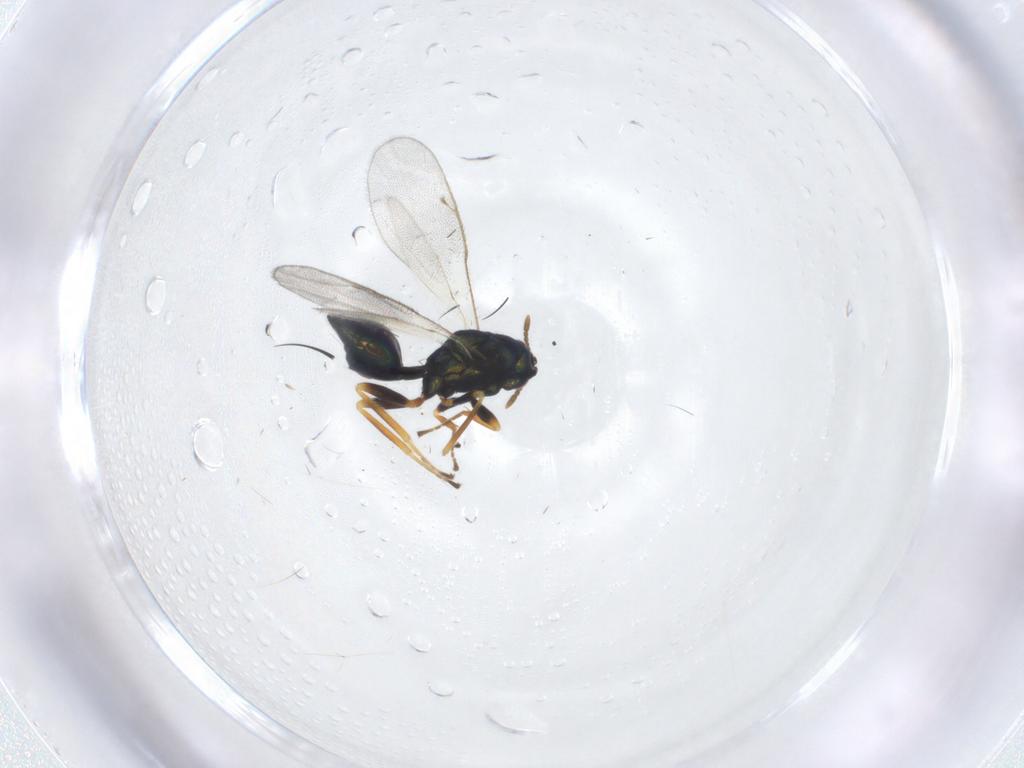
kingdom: Animalia
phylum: Arthropoda
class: Insecta
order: Hymenoptera
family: Pteromalidae
